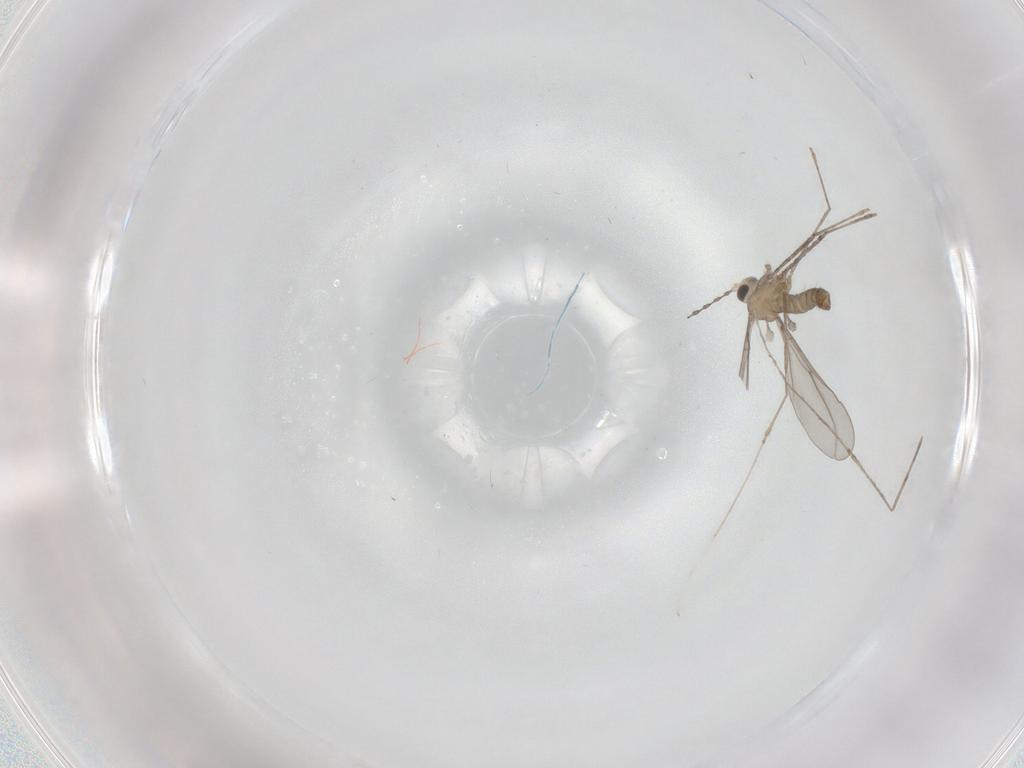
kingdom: Animalia
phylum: Arthropoda
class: Insecta
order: Diptera
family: Cecidomyiidae
